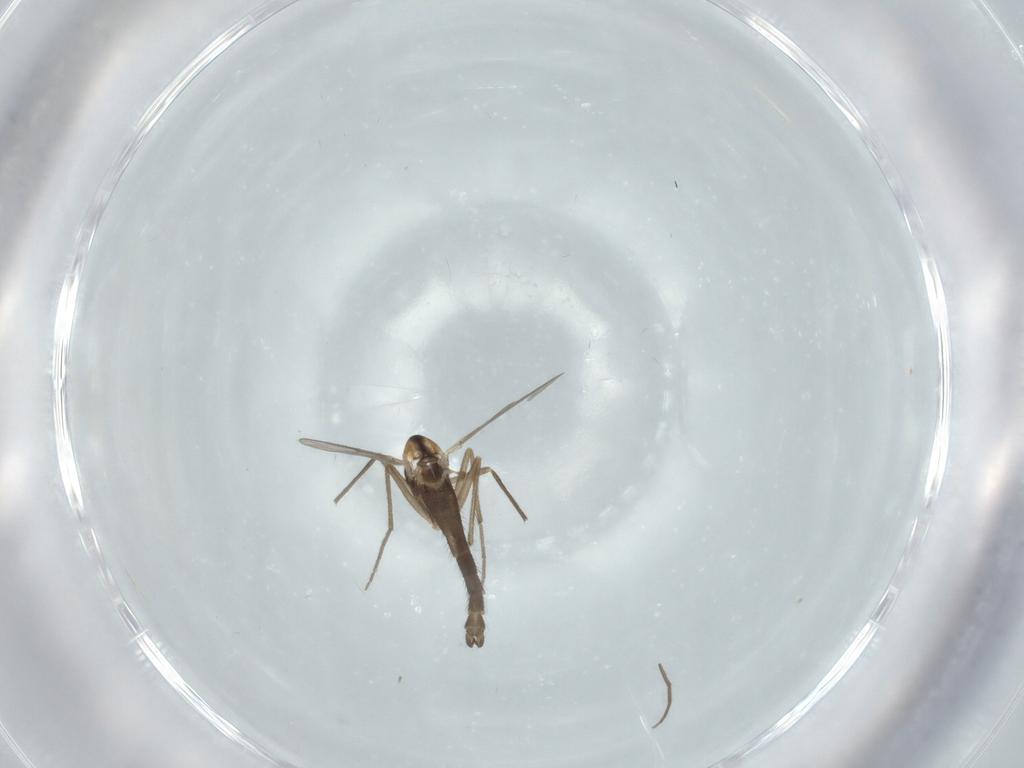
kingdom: Animalia
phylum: Arthropoda
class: Insecta
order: Diptera
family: Chironomidae
